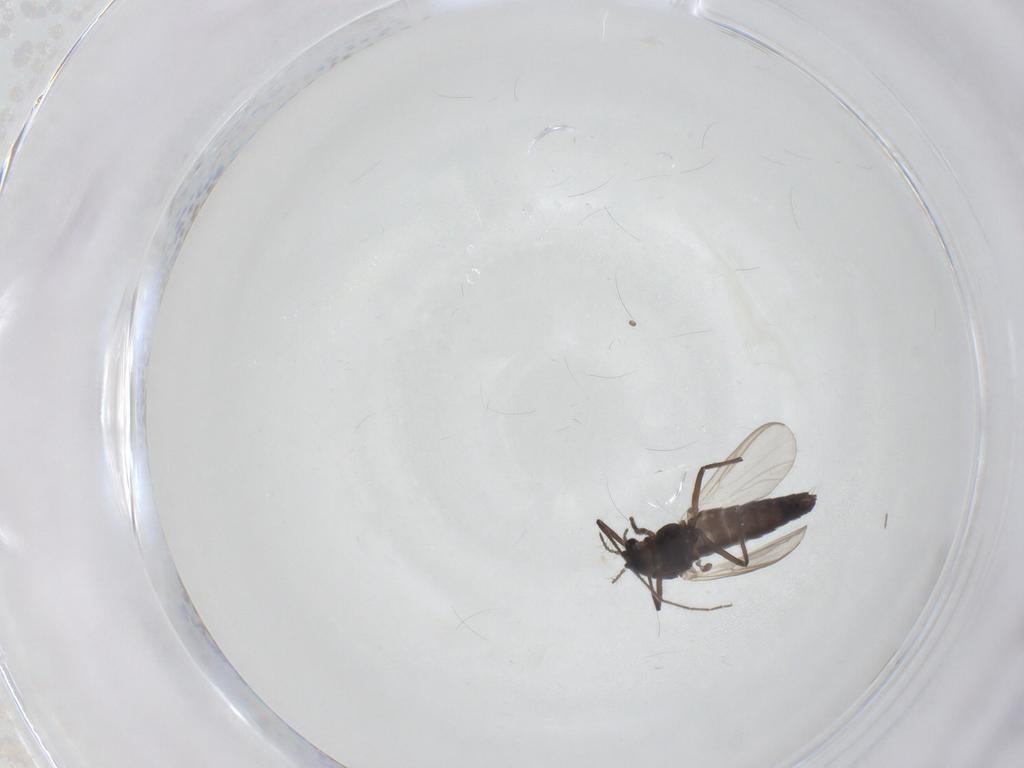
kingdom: Animalia
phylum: Arthropoda
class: Insecta
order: Diptera
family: Chironomidae
